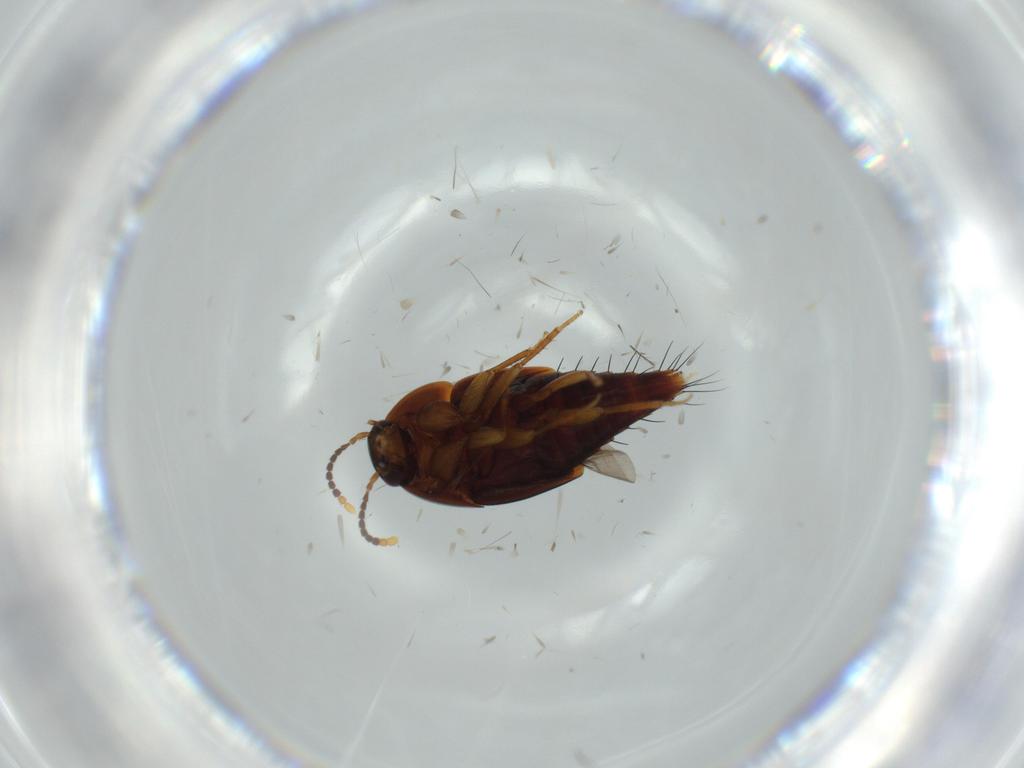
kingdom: Animalia
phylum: Arthropoda
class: Insecta
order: Coleoptera
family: Staphylinidae
